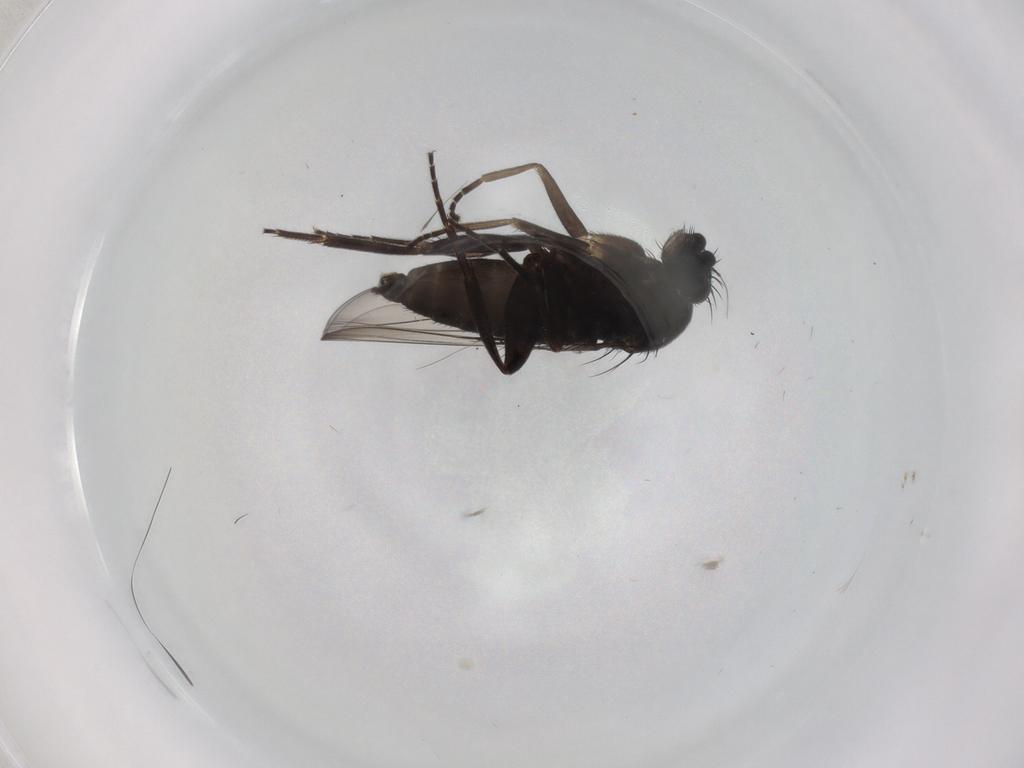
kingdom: Animalia
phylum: Arthropoda
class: Insecta
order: Diptera
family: Phoridae
